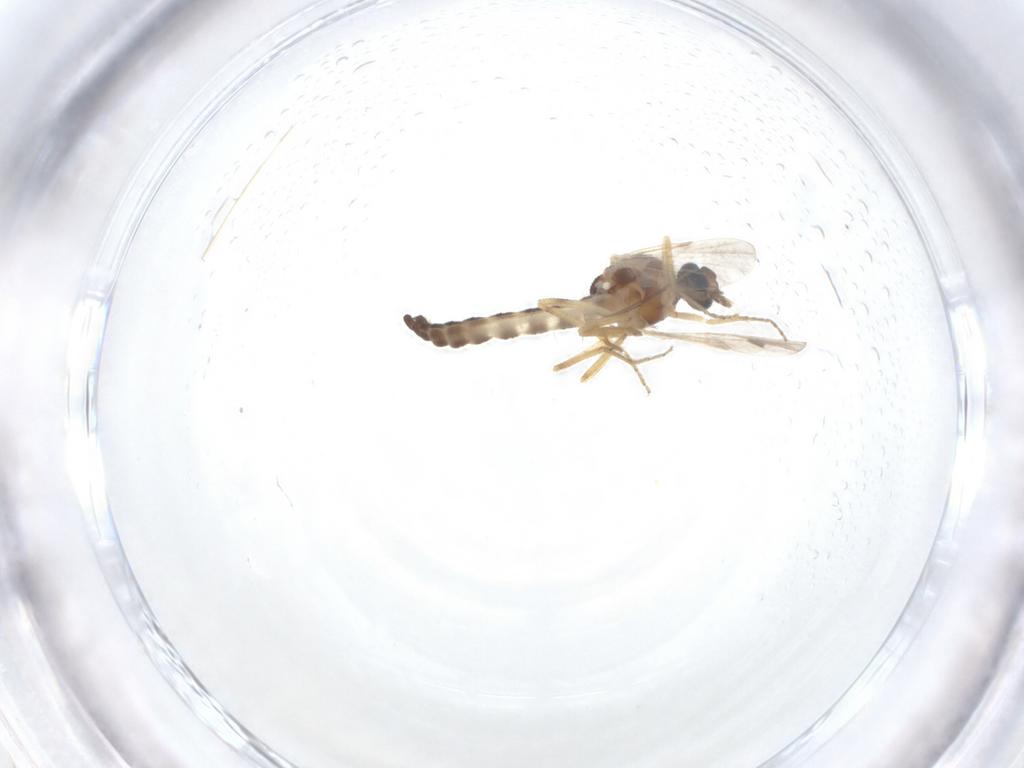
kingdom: Animalia
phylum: Arthropoda
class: Insecta
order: Diptera
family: Ceratopogonidae
